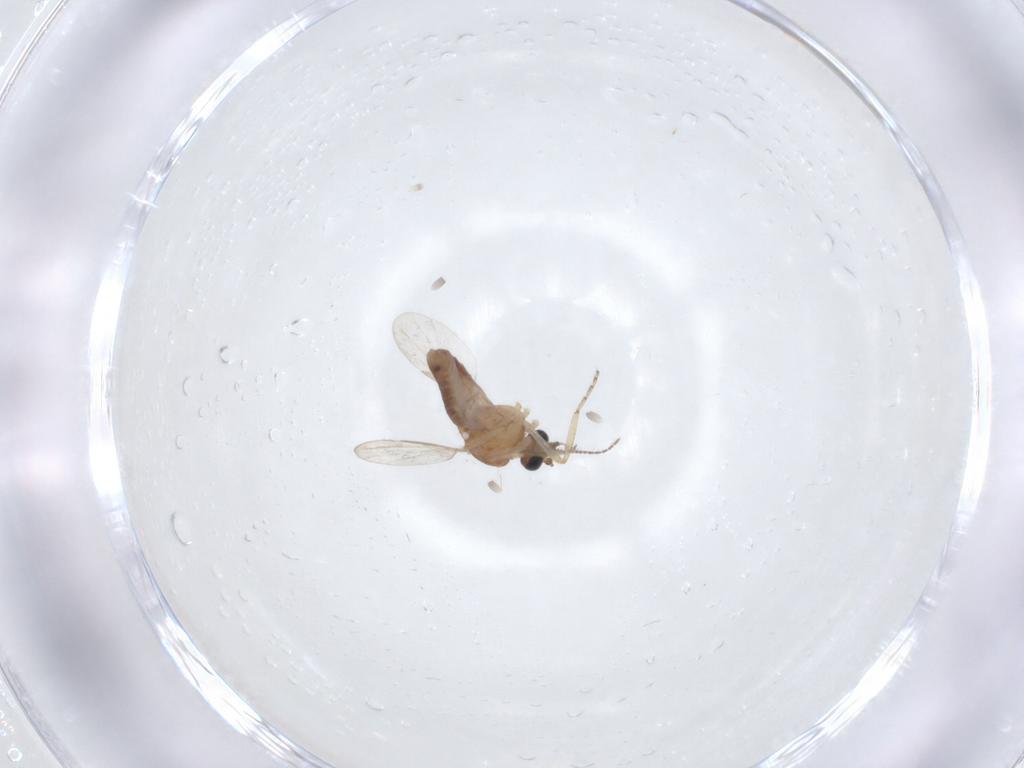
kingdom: Animalia
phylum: Arthropoda
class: Insecta
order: Diptera
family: Ceratopogonidae
